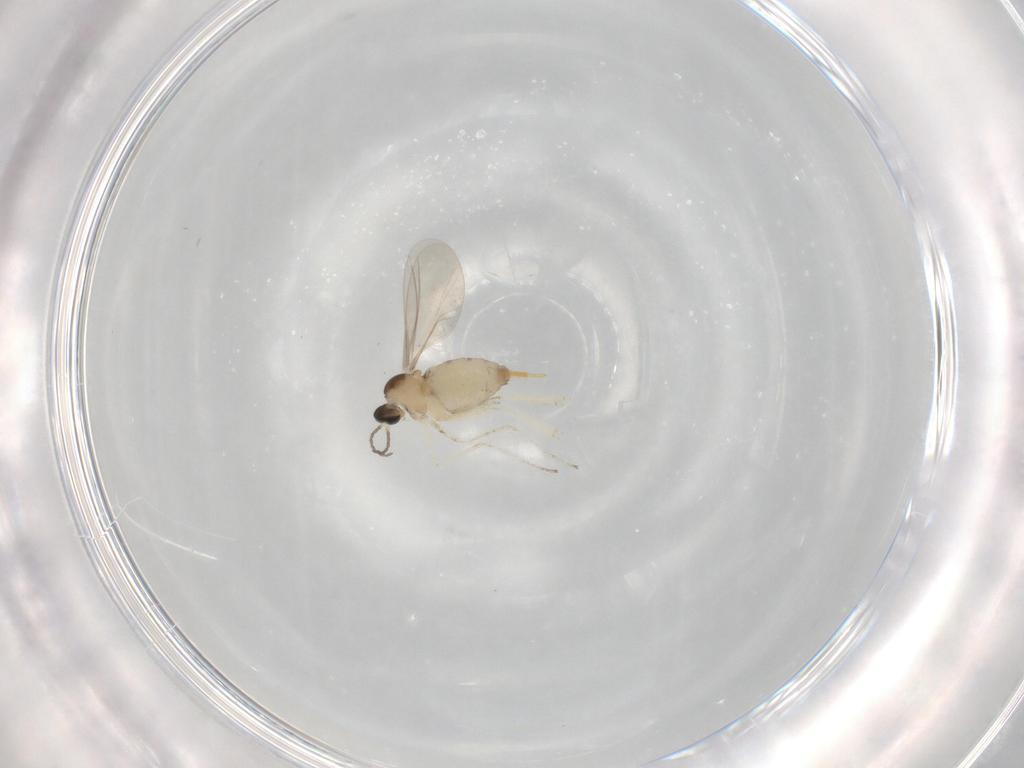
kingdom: Animalia
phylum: Arthropoda
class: Insecta
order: Diptera
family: Cecidomyiidae
